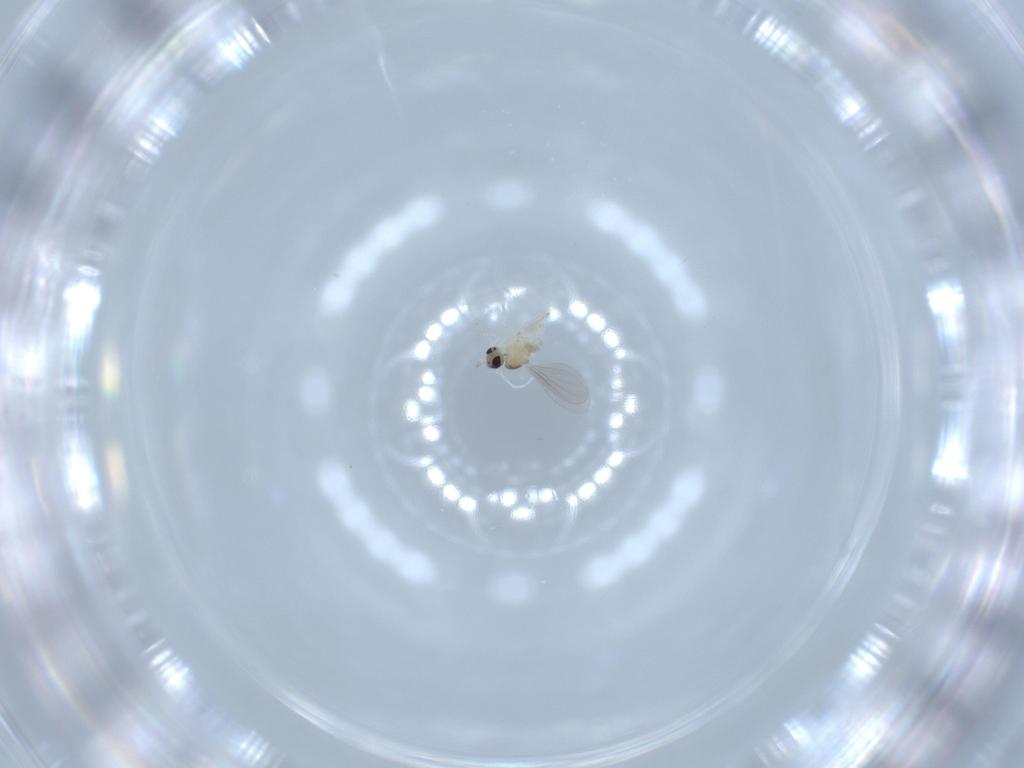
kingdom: Animalia
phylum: Arthropoda
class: Insecta
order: Diptera
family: Cecidomyiidae
